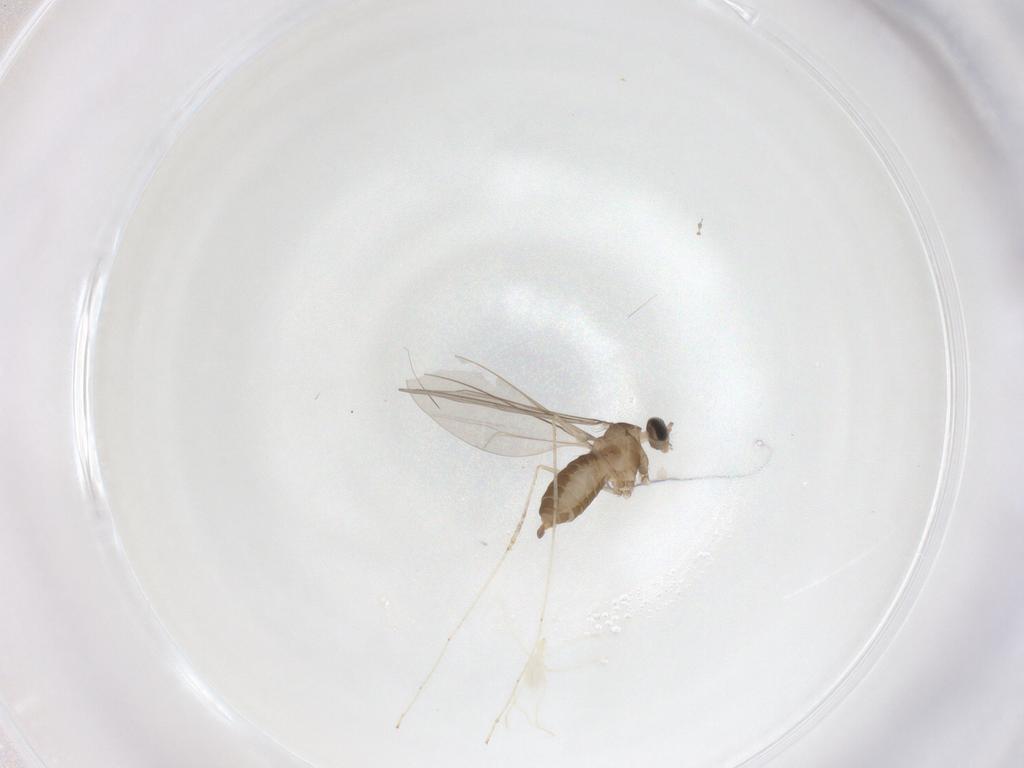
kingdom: Animalia
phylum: Arthropoda
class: Insecta
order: Diptera
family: Cecidomyiidae
